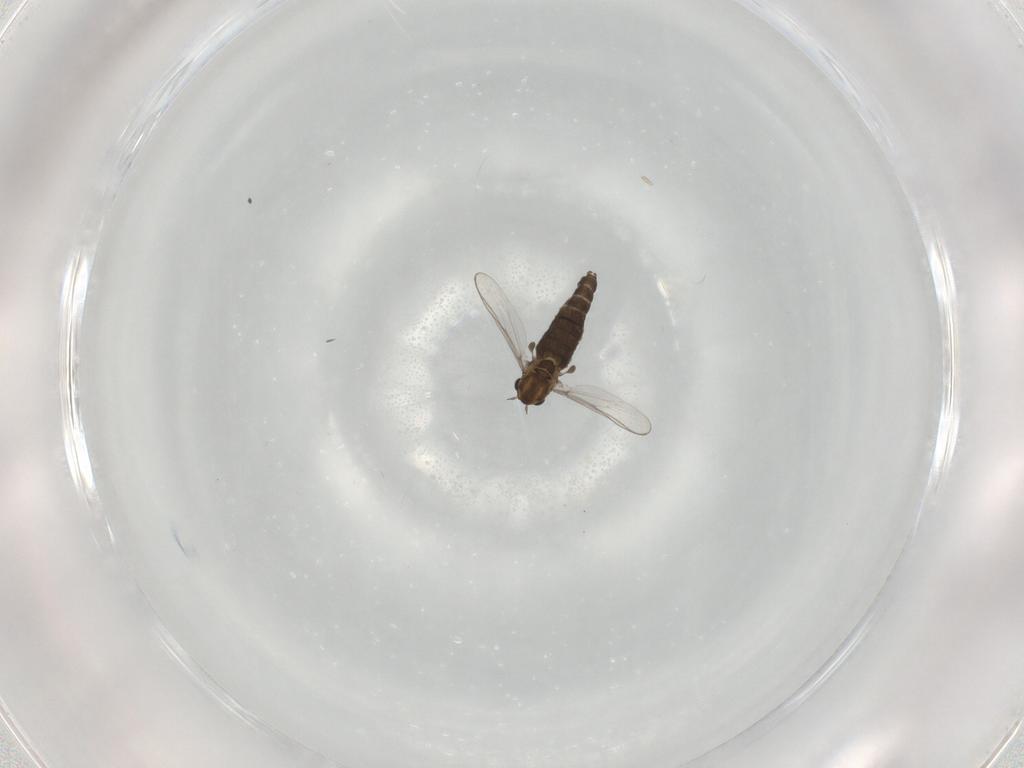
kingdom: Animalia
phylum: Arthropoda
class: Insecta
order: Diptera
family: Chironomidae
